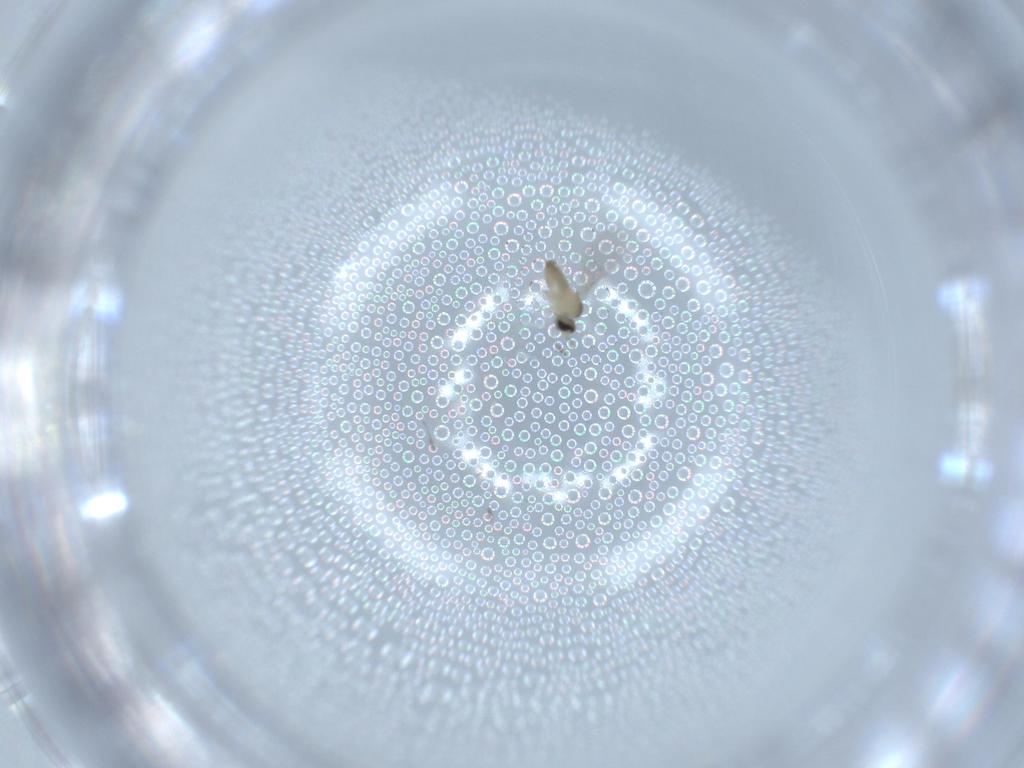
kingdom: Animalia
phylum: Arthropoda
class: Insecta
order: Diptera
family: Cecidomyiidae
